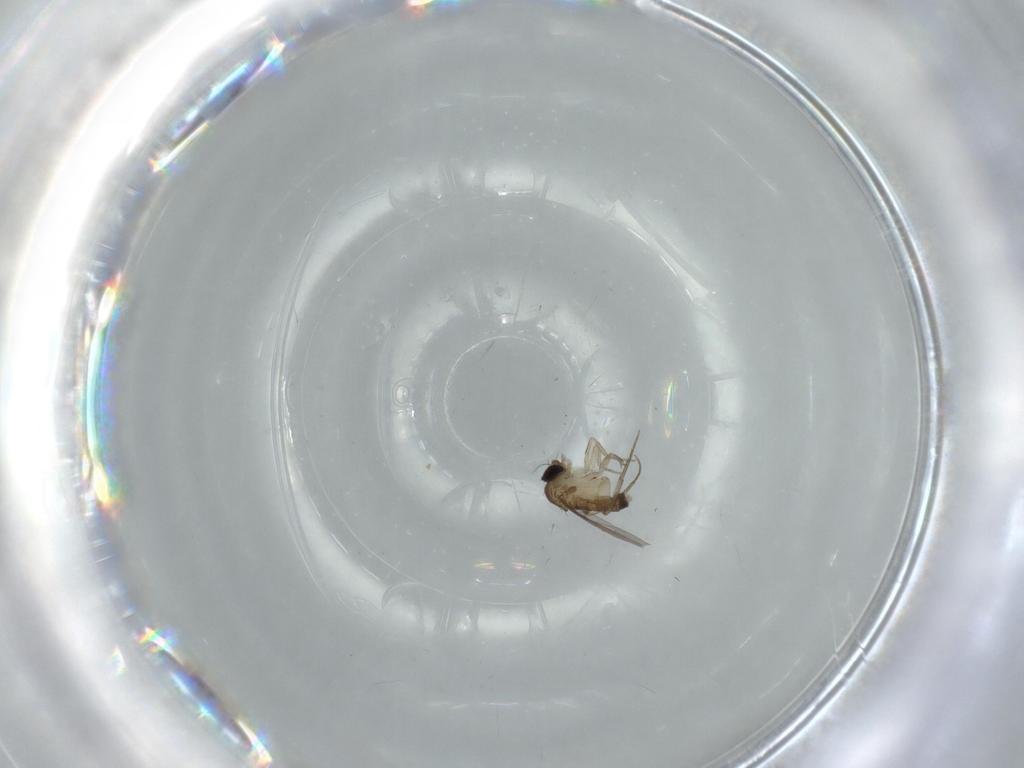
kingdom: Animalia
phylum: Arthropoda
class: Insecta
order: Diptera
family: Phoridae
